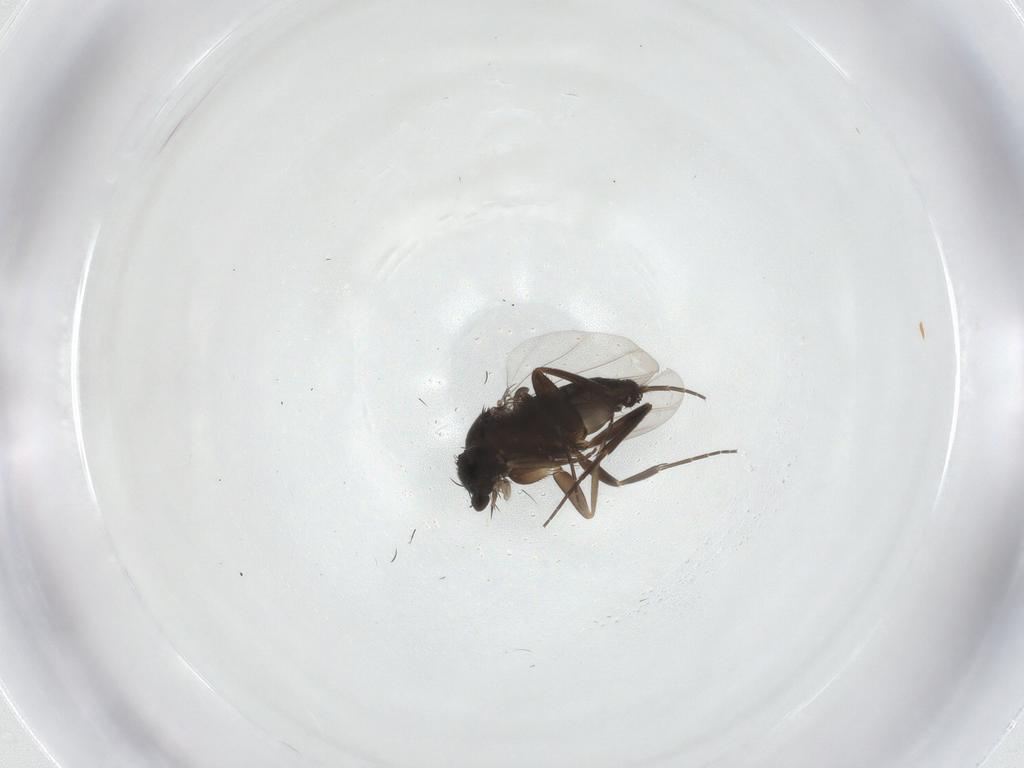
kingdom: Animalia
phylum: Arthropoda
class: Insecta
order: Diptera
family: Phoridae
